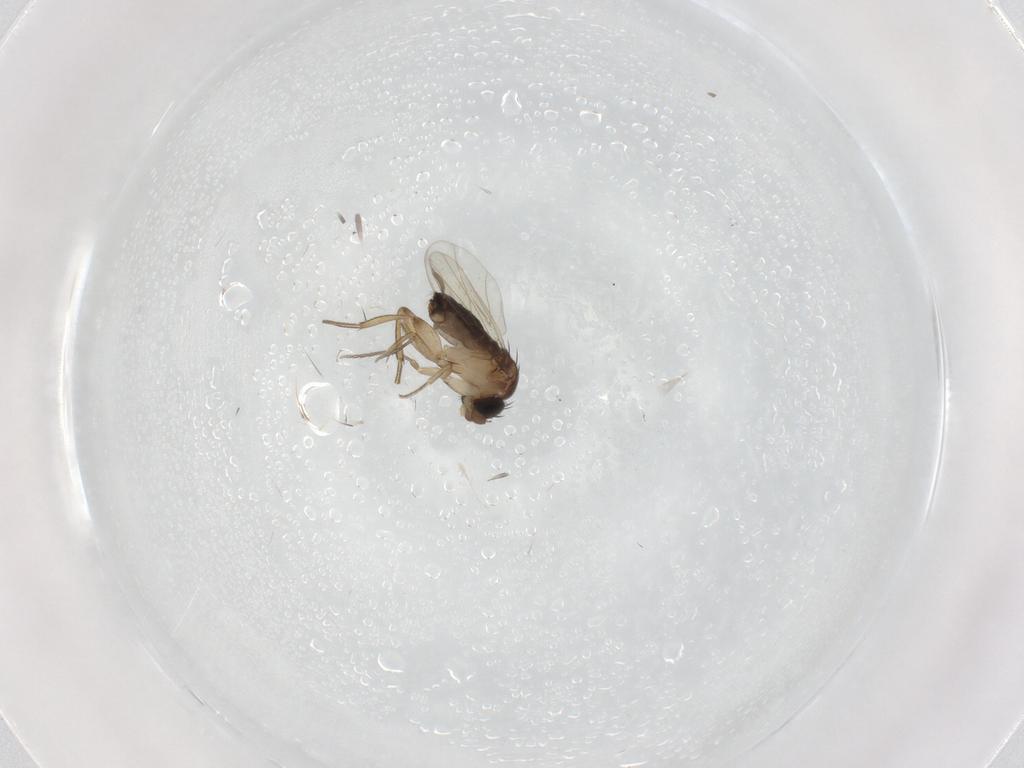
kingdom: Animalia
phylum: Arthropoda
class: Insecta
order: Diptera
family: Phoridae
